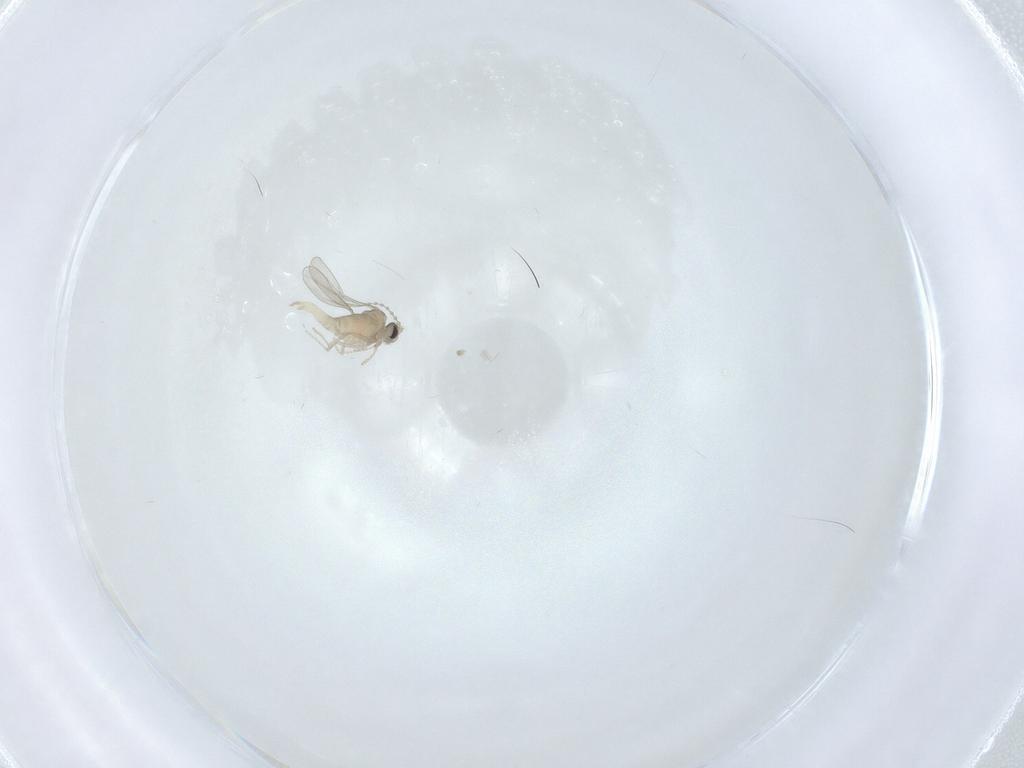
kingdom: Animalia
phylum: Arthropoda
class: Insecta
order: Diptera
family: Cecidomyiidae
